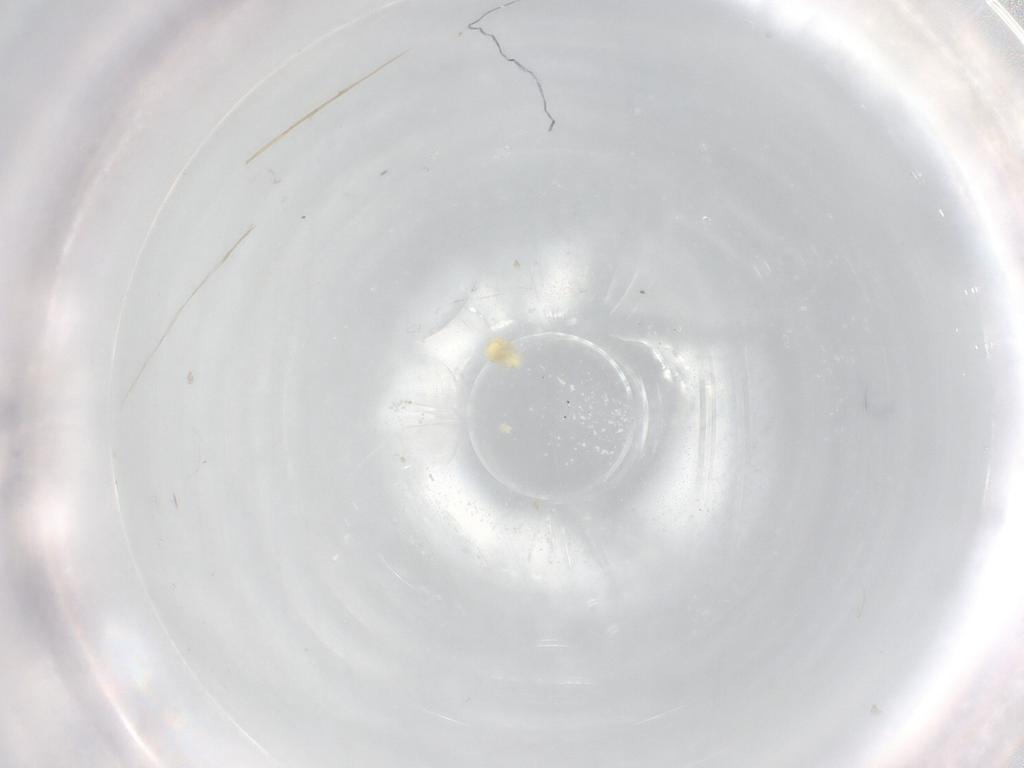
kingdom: Animalia
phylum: Arthropoda
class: Arachnida
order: Trombidiformes
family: Eupodidae
